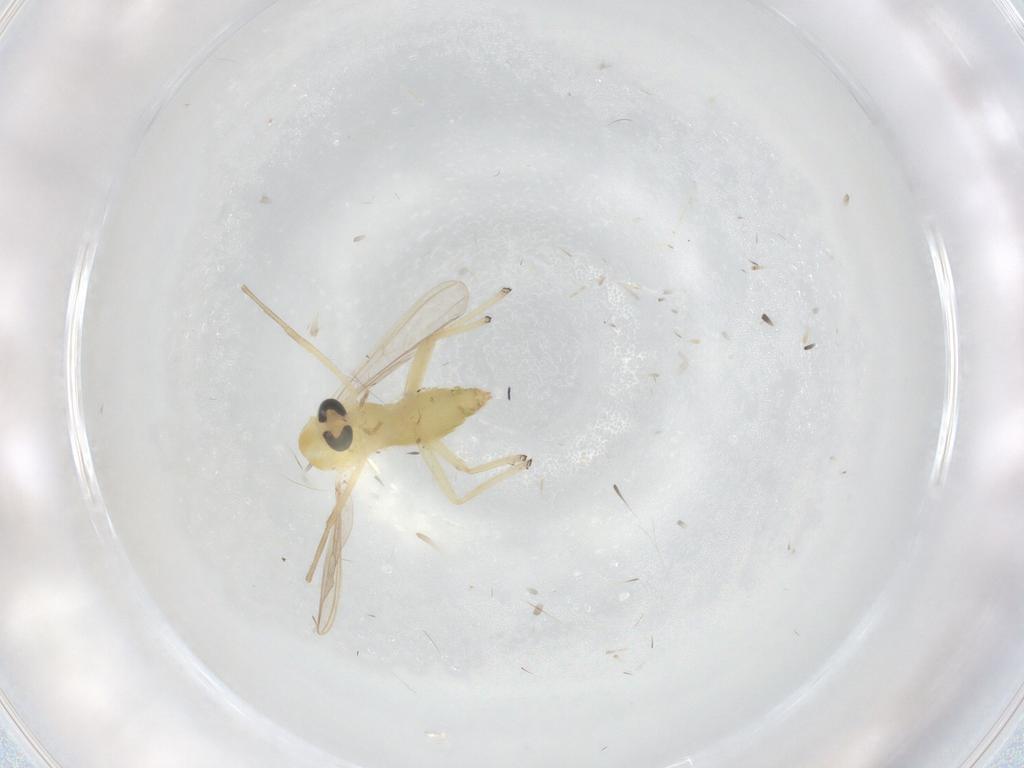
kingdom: Animalia
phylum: Arthropoda
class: Insecta
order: Diptera
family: Chironomidae
